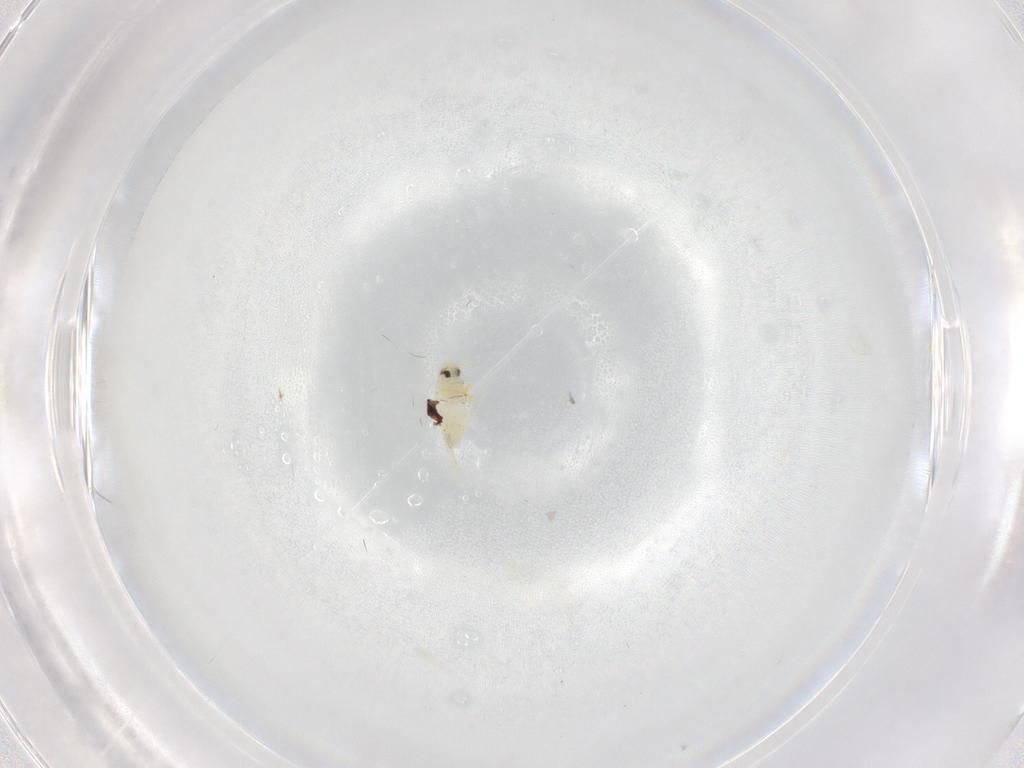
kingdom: Animalia
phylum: Arthropoda
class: Insecta
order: Hemiptera
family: Aleyrodidae
